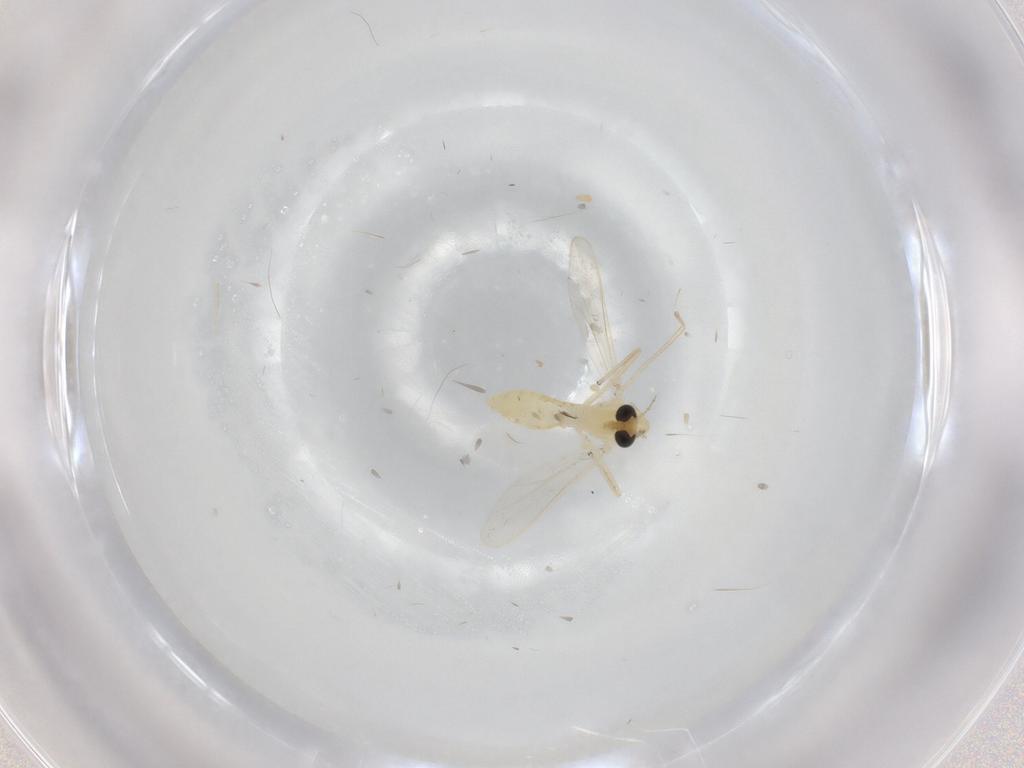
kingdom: Animalia
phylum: Arthropoda
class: Insecta
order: Diptera
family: Chironomidae
